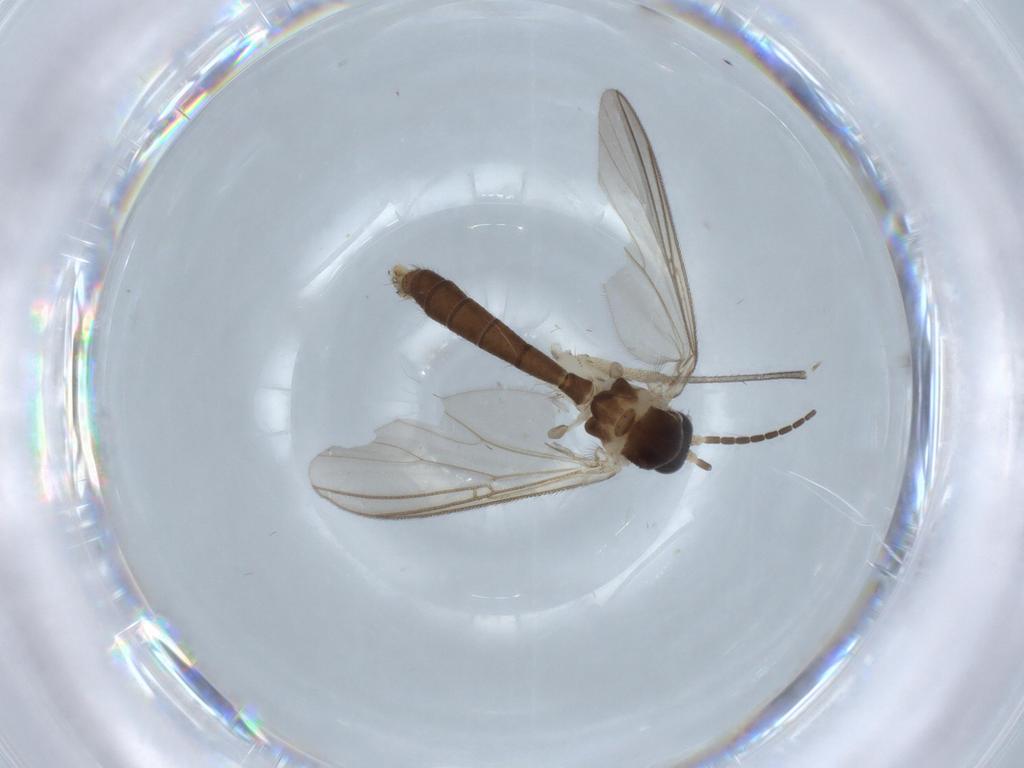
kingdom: Animalia
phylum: Arthropoda
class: Insecta
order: Diptera
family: Mycetophilidae
